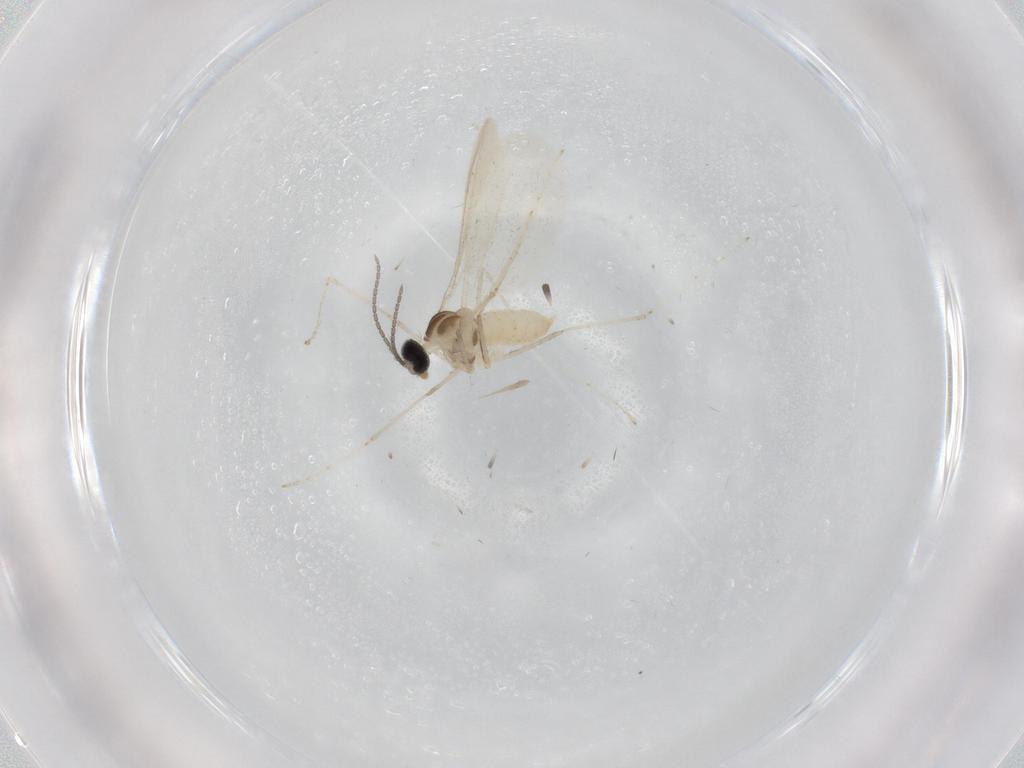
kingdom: Animalia
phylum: Arthropoda
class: Insecta
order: Diptera
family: Cecidomyiidae
